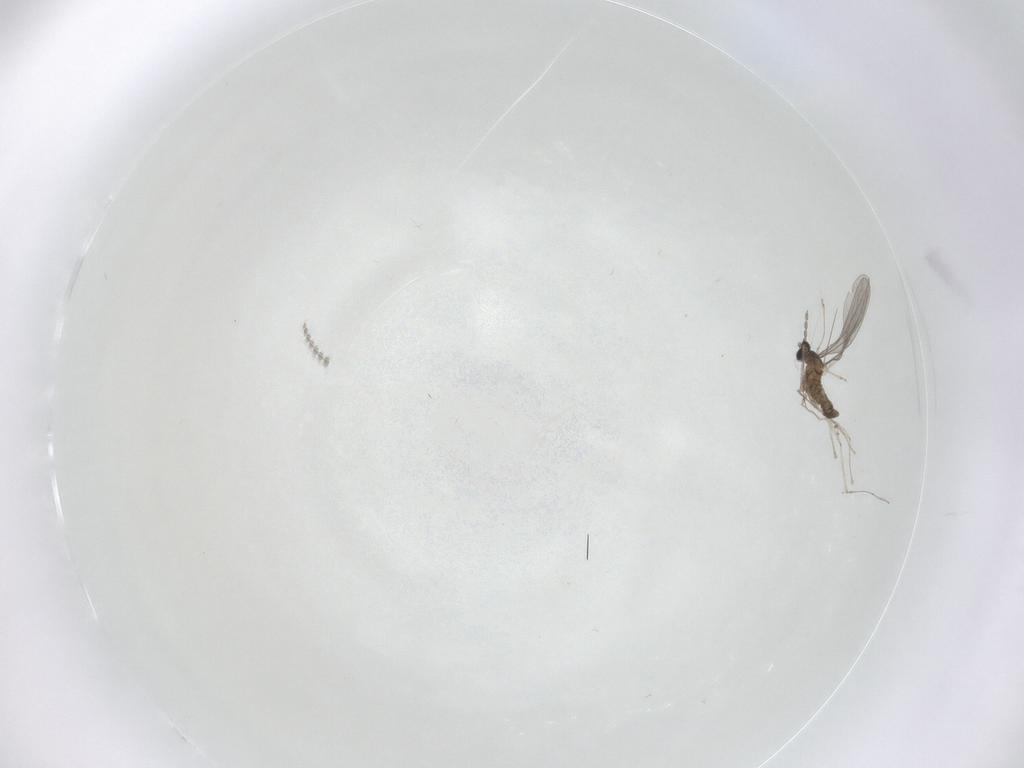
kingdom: Animalia
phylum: Arthropoda
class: Insecta
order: Diptera
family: Cecidomyiidae
